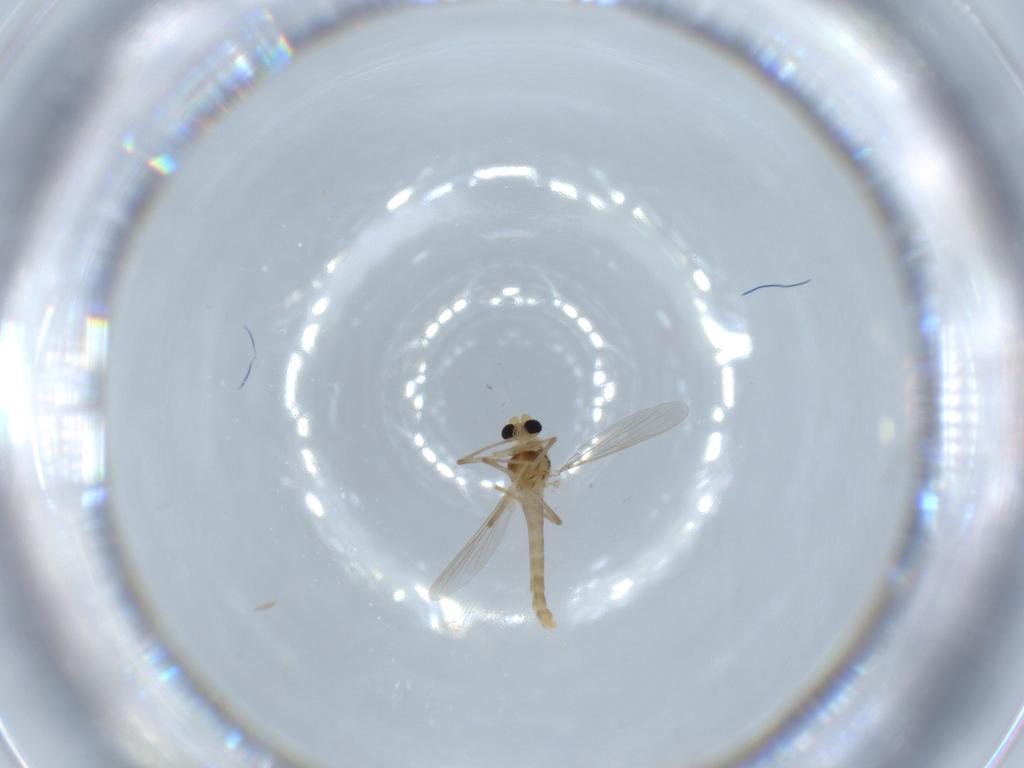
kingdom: Animalia
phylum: Arthropoda
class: Insecta
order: Diptera
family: Chironomidae
